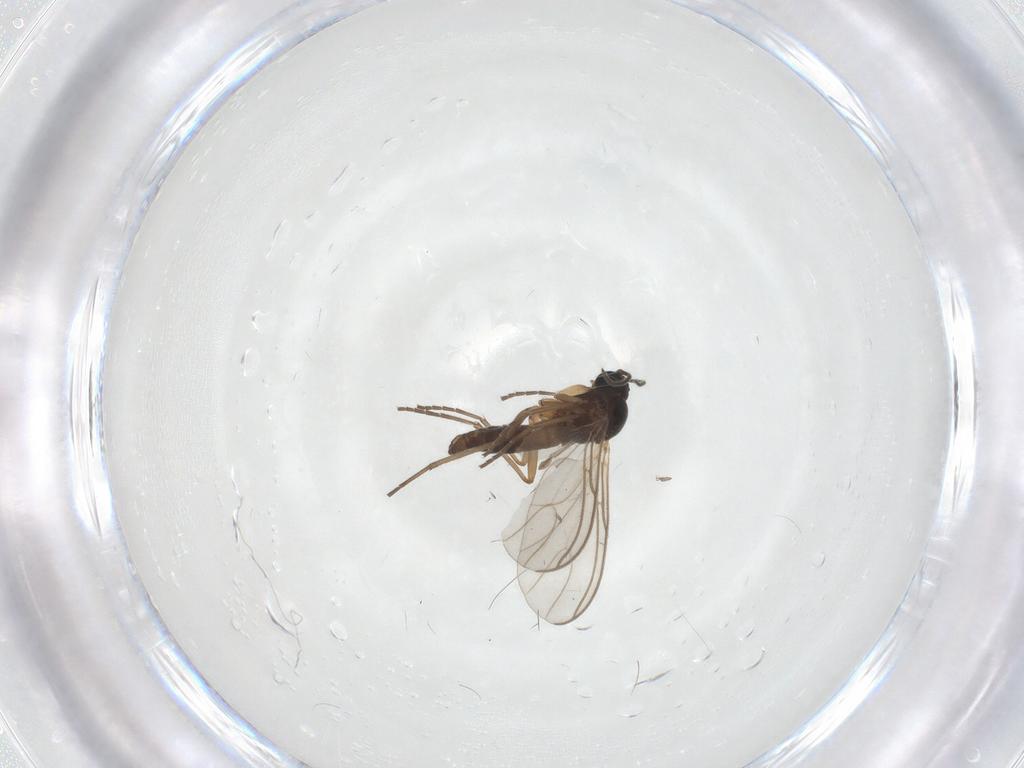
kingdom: Animalia
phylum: Arthropoda
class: Insecta
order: Diptera
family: Sciaridae
